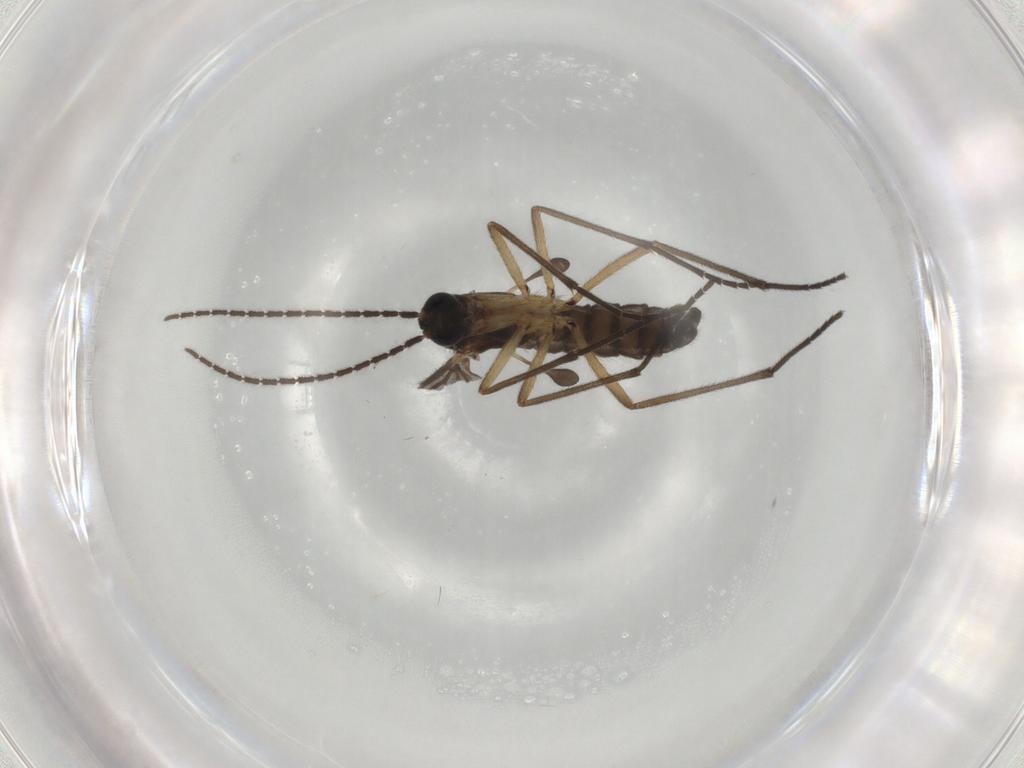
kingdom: Animalia
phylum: Arthropoda
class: Insecta
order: Diptera
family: Sciaridae
